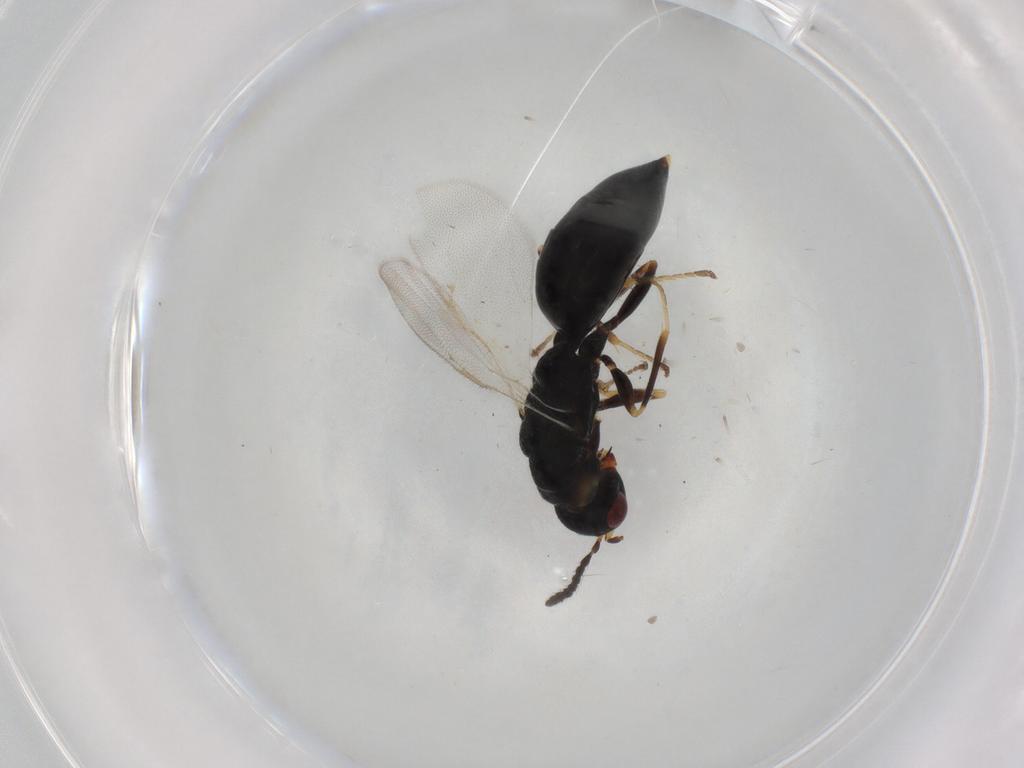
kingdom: Animalia
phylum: Arthropoda
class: Insecta
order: Hymenoptera
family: Eurytomidae
